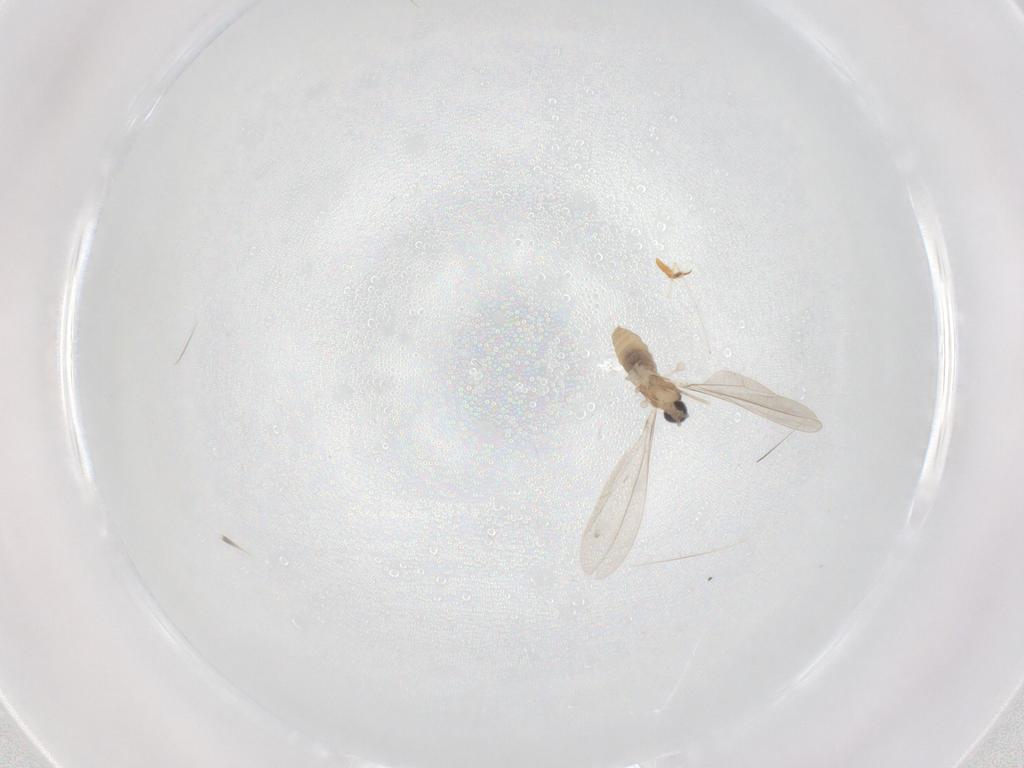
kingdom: Animalia
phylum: Arthropoda
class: Insecta
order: Diptera
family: Cecidomyiidae
